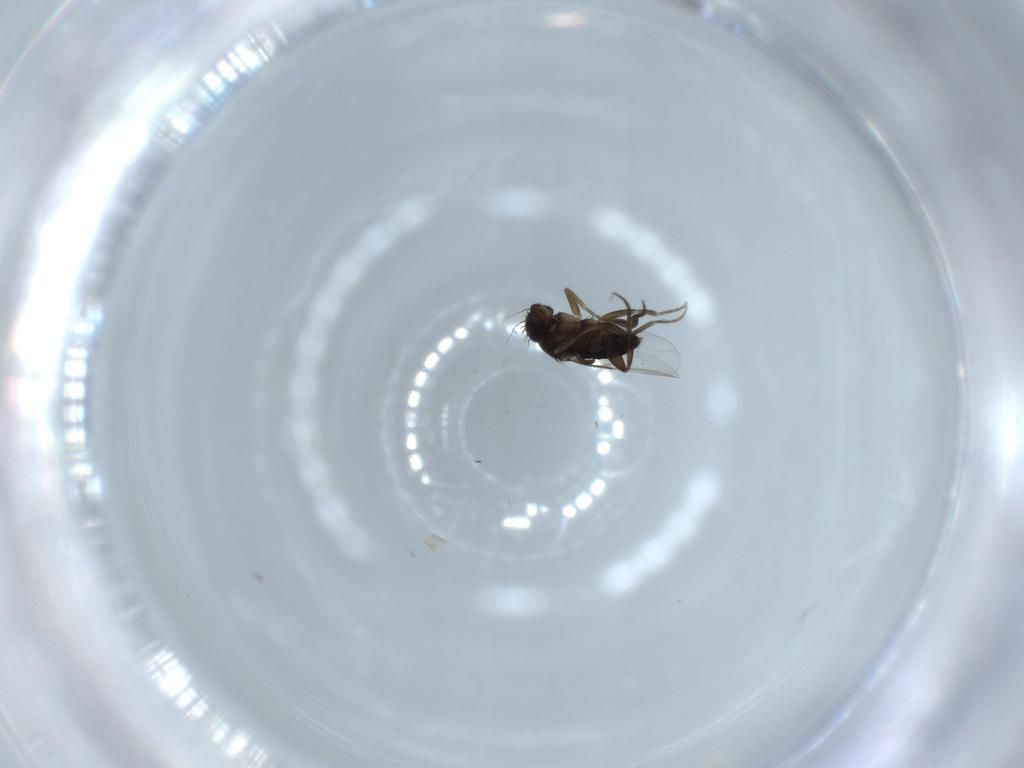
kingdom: Animalia
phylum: Arthropoda
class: Insecta
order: Diptera
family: Phoridae
